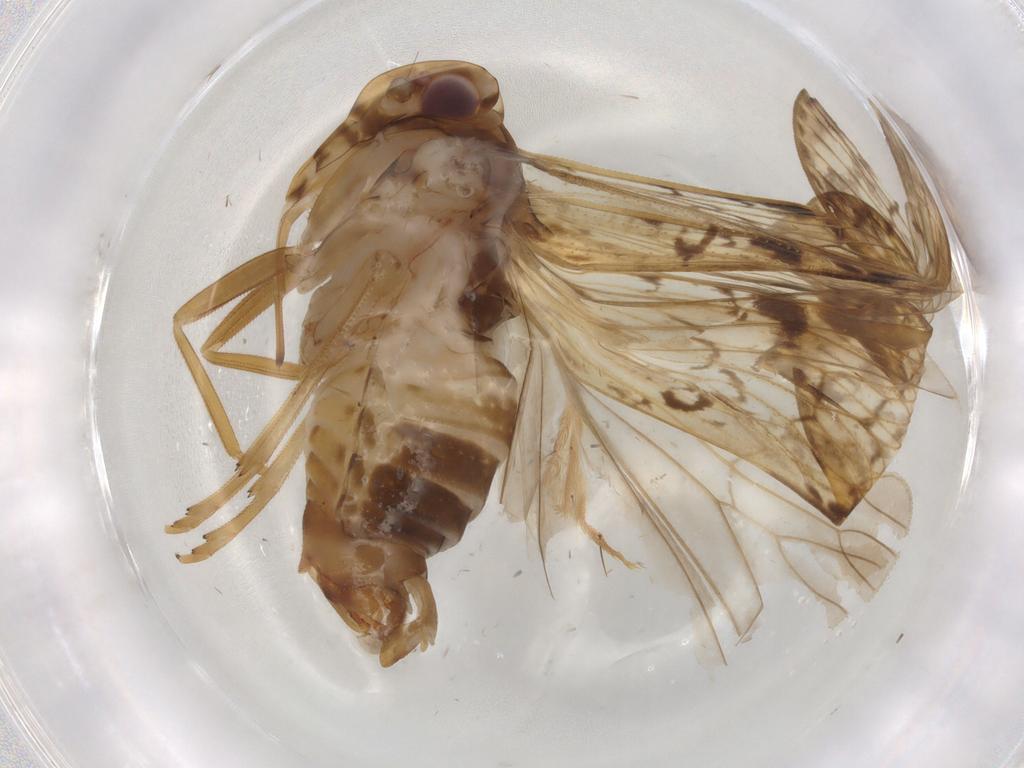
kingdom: Animalia
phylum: Arthropoda
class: Insecta
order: Hemiptera
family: Cixiidae
